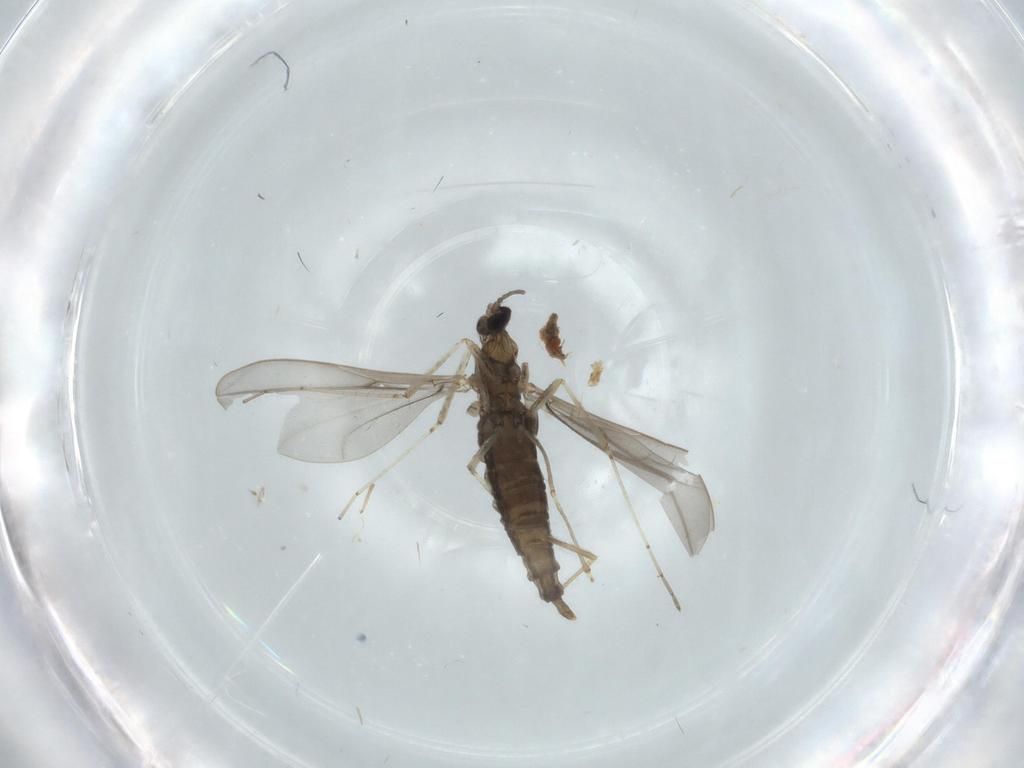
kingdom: Animalia
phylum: Arthropoda
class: Insecta
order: Diptera
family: Cecidomyiidae
